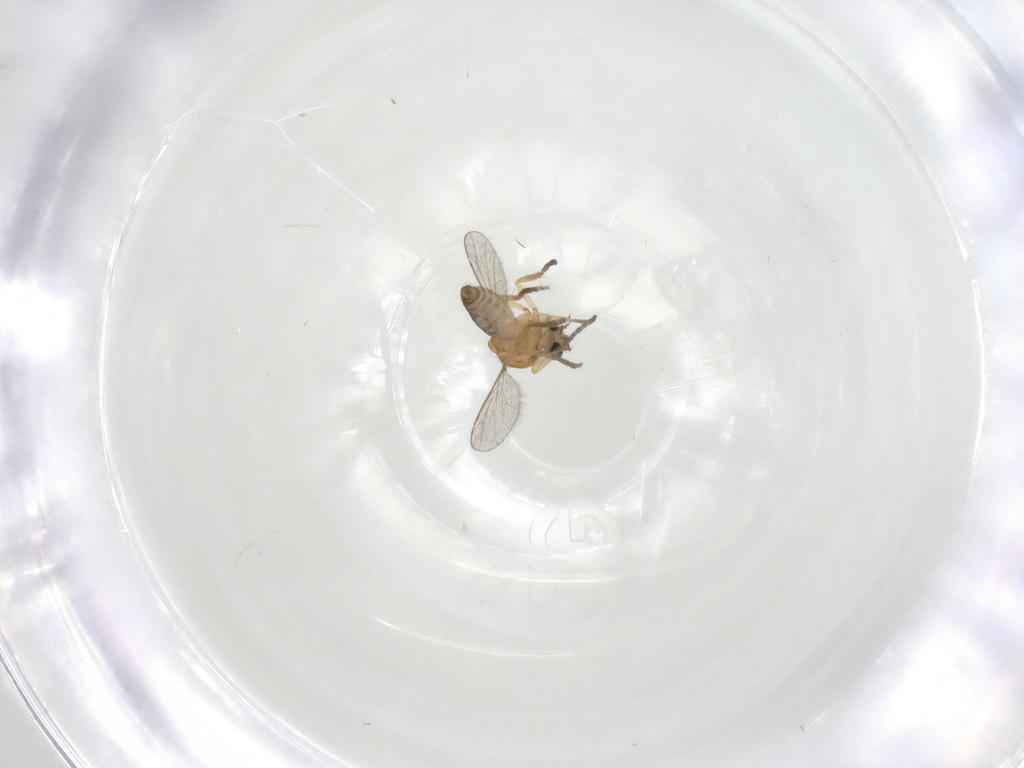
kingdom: Animalia
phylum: Arthropoda
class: Insecta
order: Diptera
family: Ceratopogonidae
